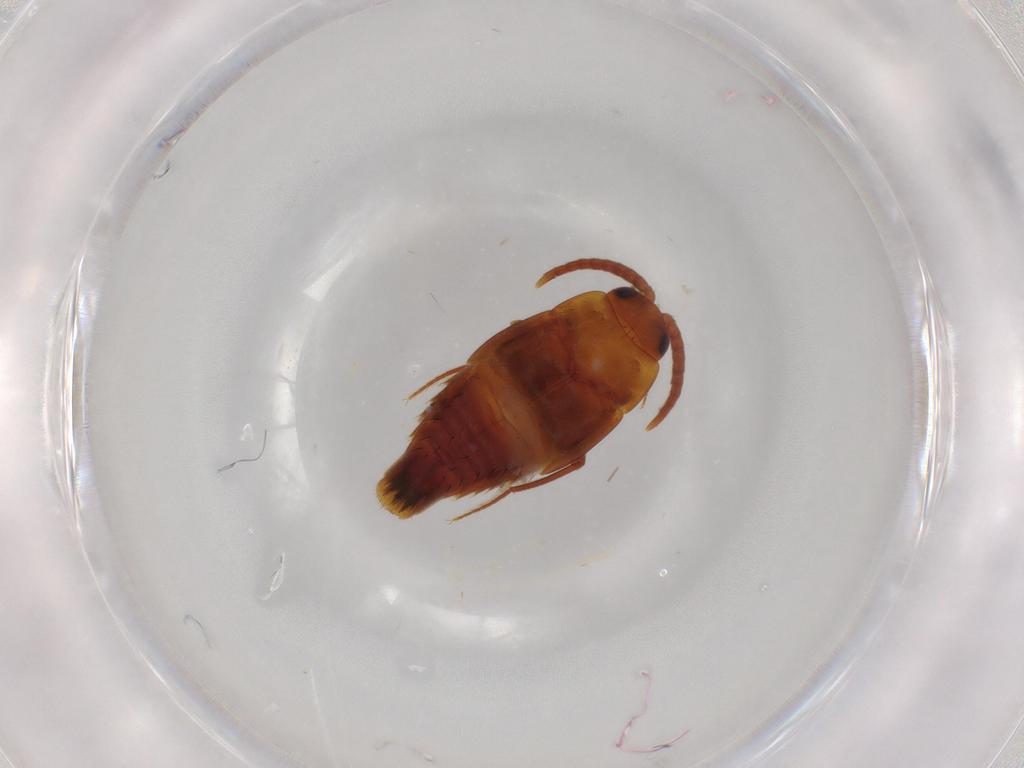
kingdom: Animalia
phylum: Arthropoda
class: Insecta
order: Coleoptera
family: Staphylinidae
